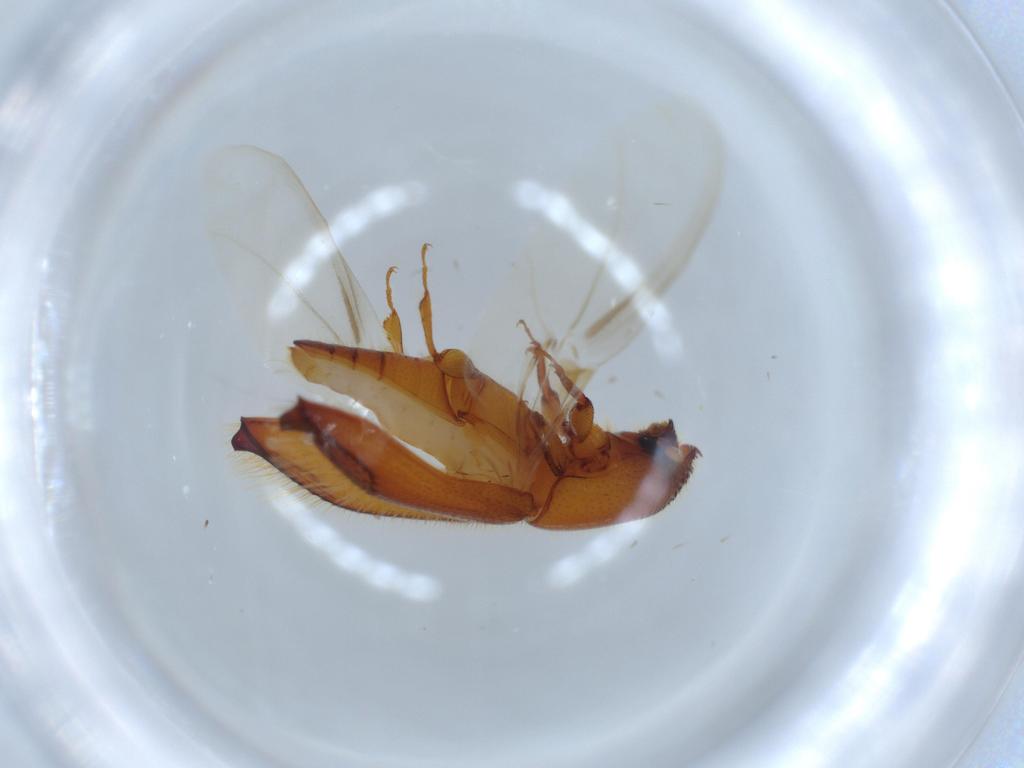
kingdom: Animalia
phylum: Arthropoda
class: Insecta
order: Coleoptera
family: Curculionidae
